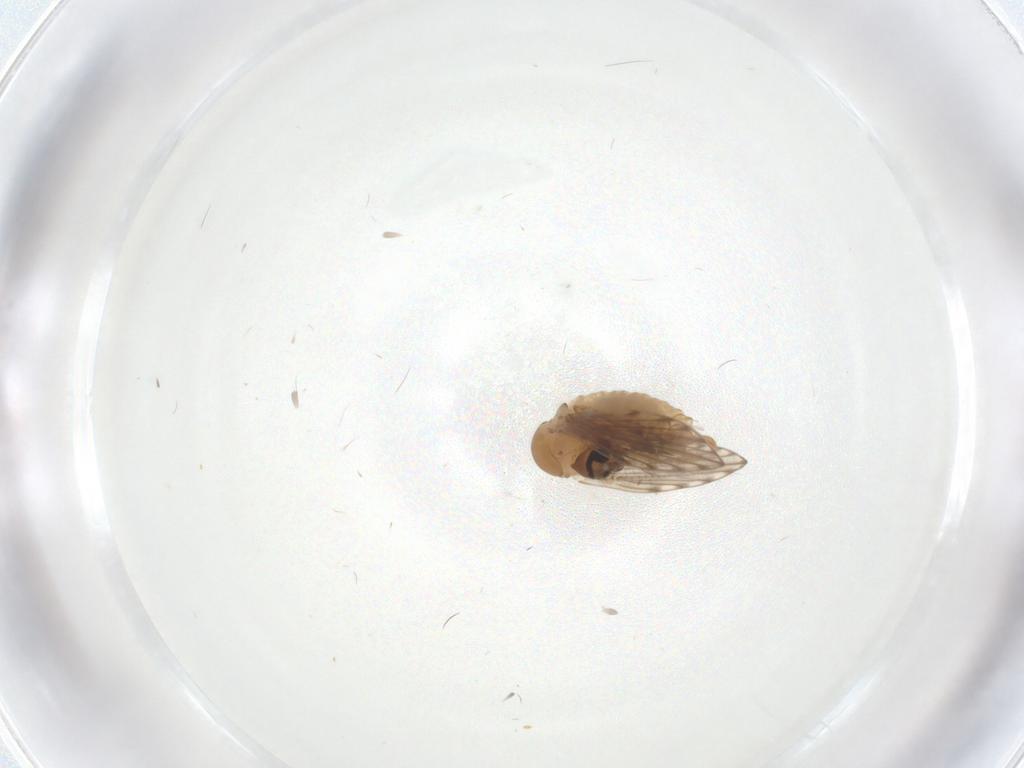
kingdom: Animalia
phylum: Arthropoda
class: Insecta
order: Diptera
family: Psychodidae
